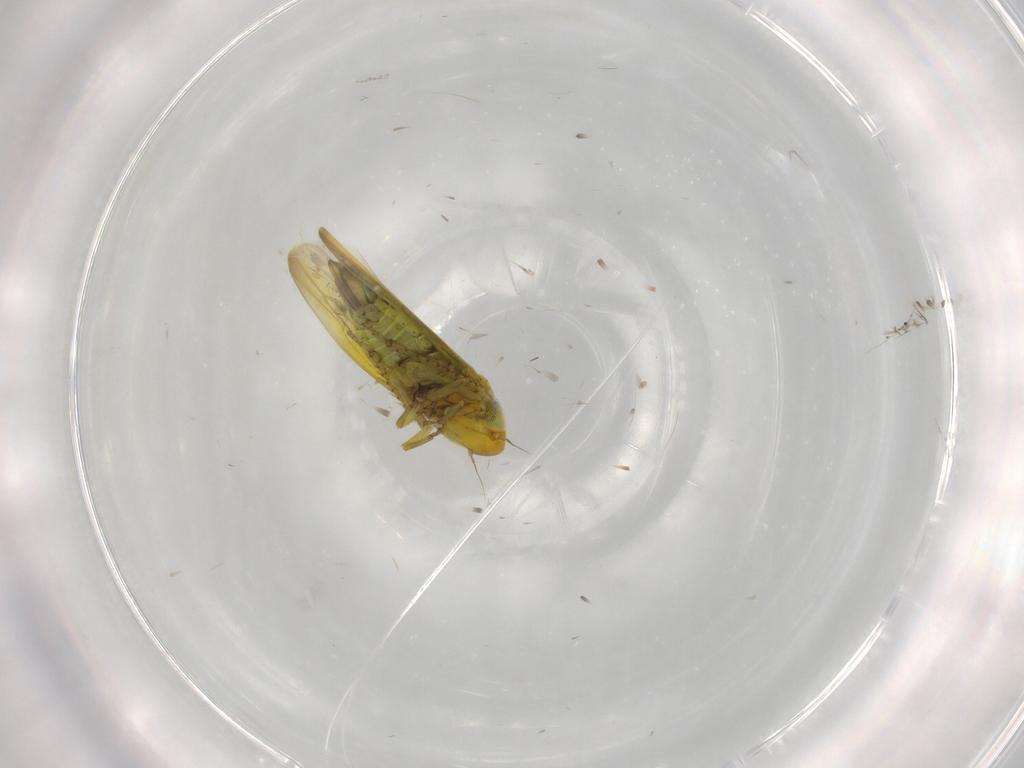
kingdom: Animalia
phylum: Arthropoda
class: Insecta
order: Hemiptera
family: Cicadellidae
